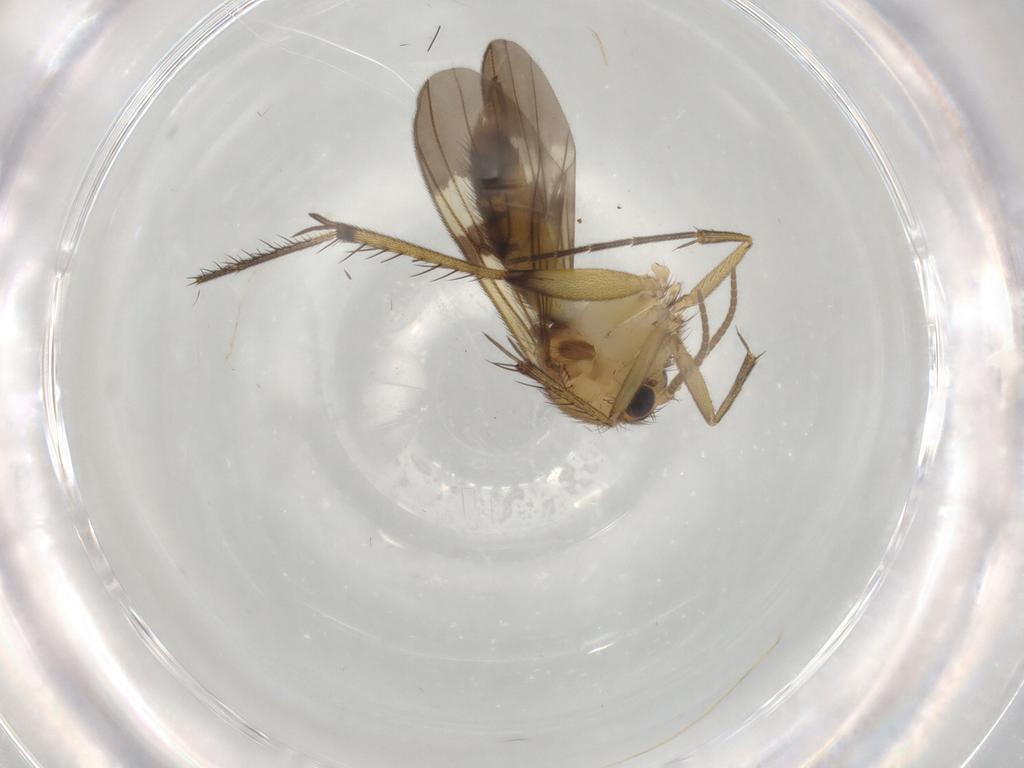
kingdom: Animalia
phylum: Arthropoda
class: Insecta
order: Diptera
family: Mycetophilidae
